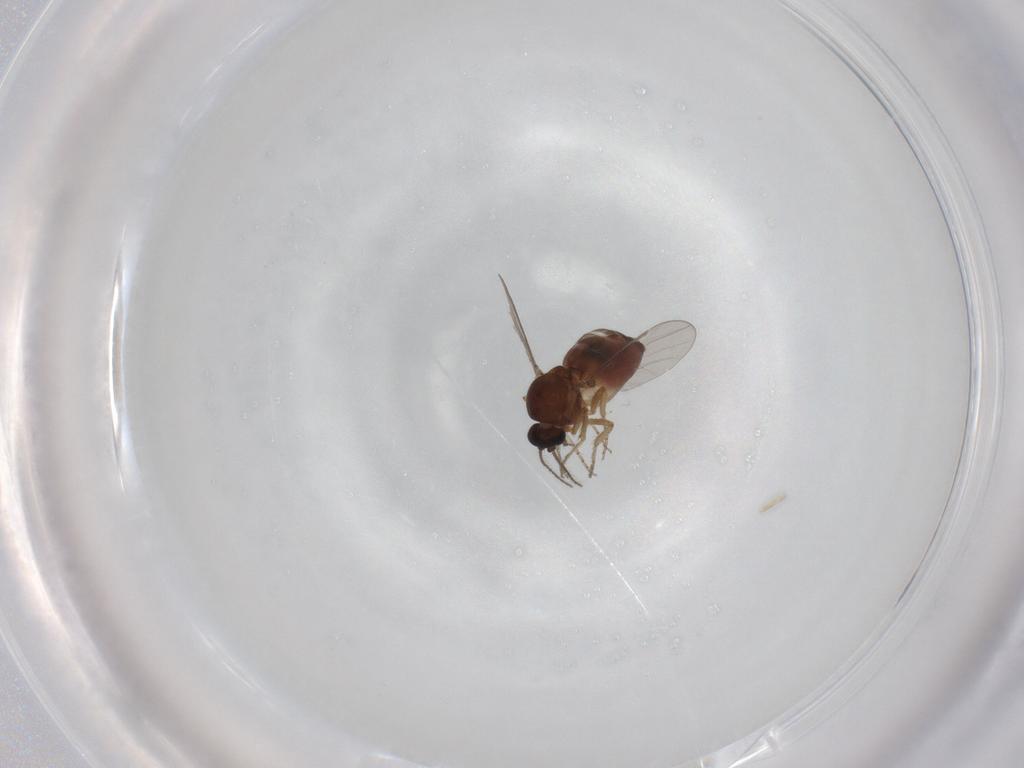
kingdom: Animalia
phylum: Arthropoda
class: Insecta
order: Diptera
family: Ceratopogonidae
